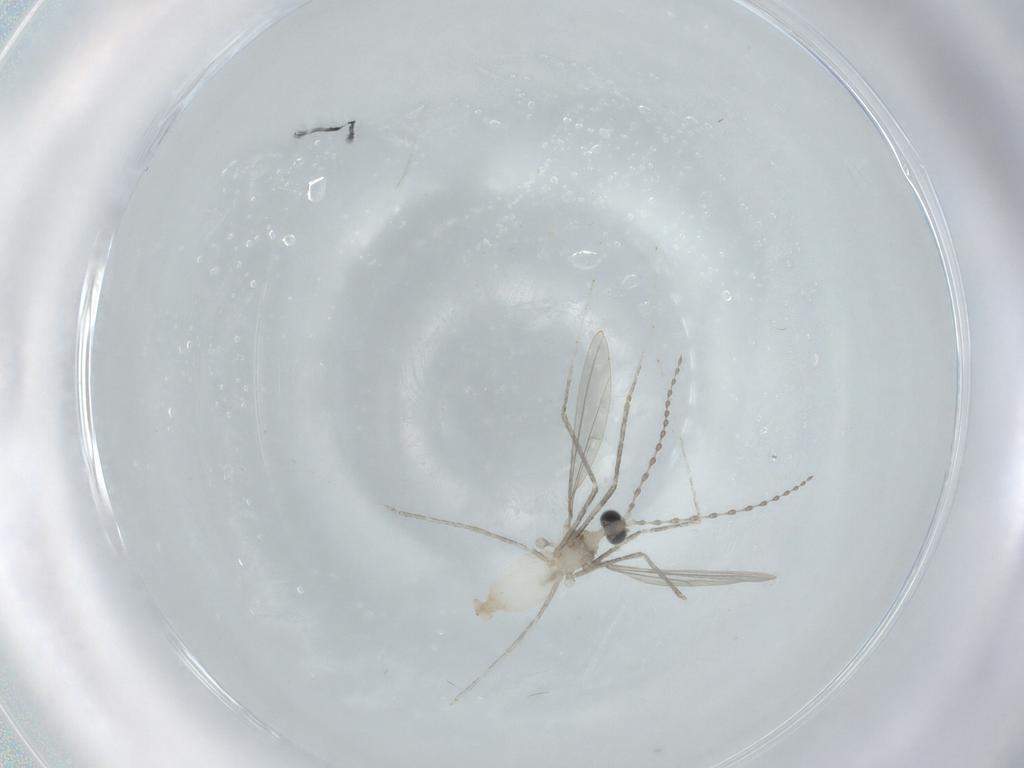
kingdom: Animalia
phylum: Arthropoda
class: Insecta
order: Diptera
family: Cecidomyiidae
